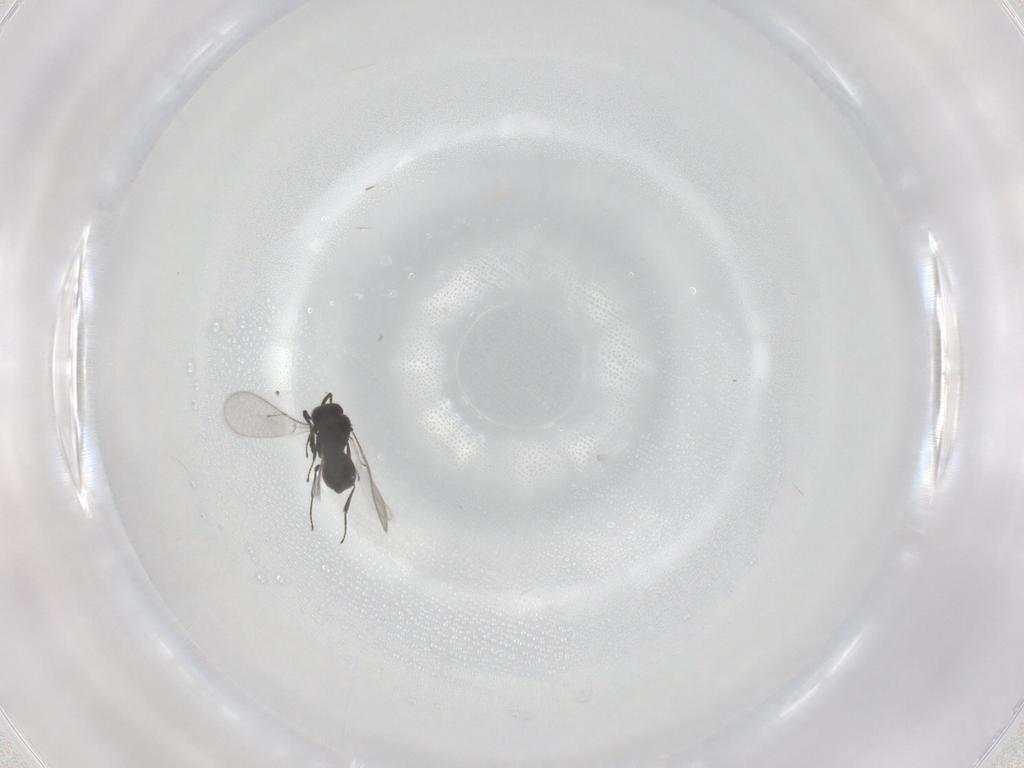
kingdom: Animalia
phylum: Arthropoda
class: Insecta
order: Hymenoptera
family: Scelionidae
